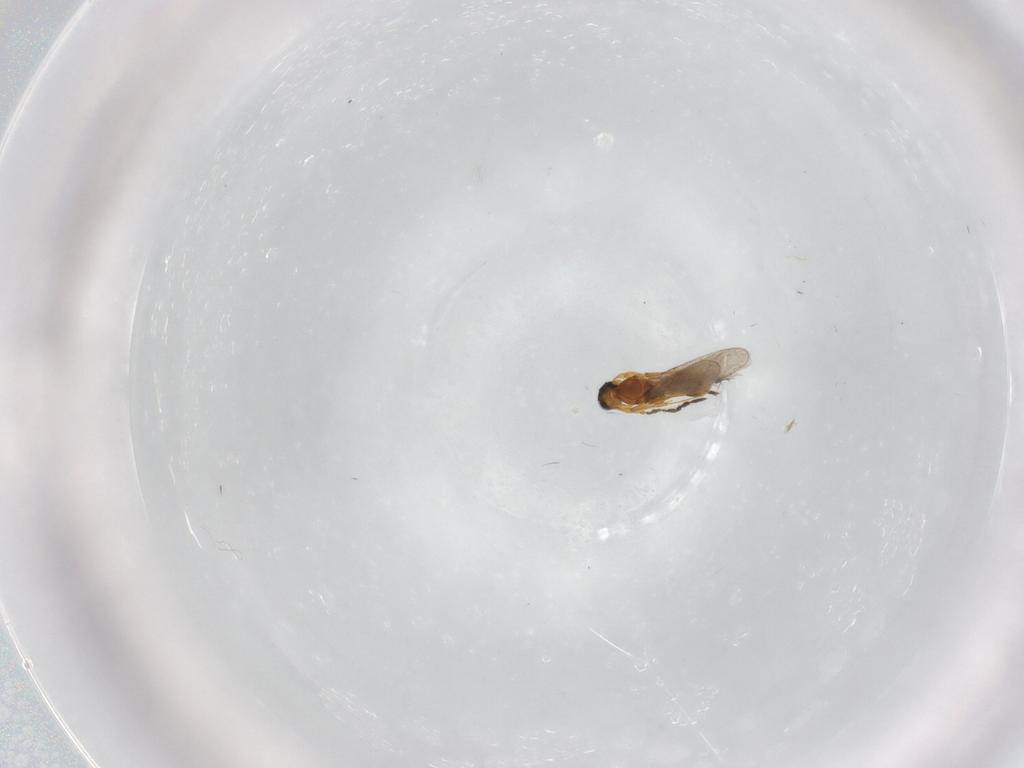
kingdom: Animalia
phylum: Arthropoda
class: Insecta
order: Hymenoptera
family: Platygastridae
